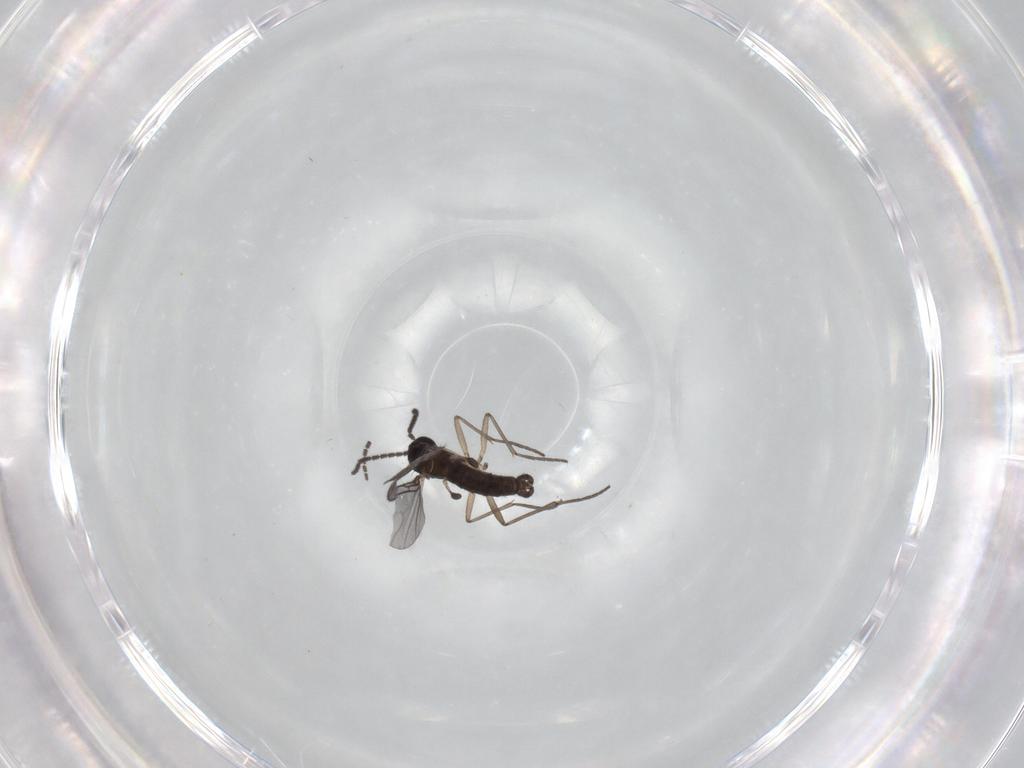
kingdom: Animalia
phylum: Arthropoda
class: Insecta
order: Diptera
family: Sciaridae
